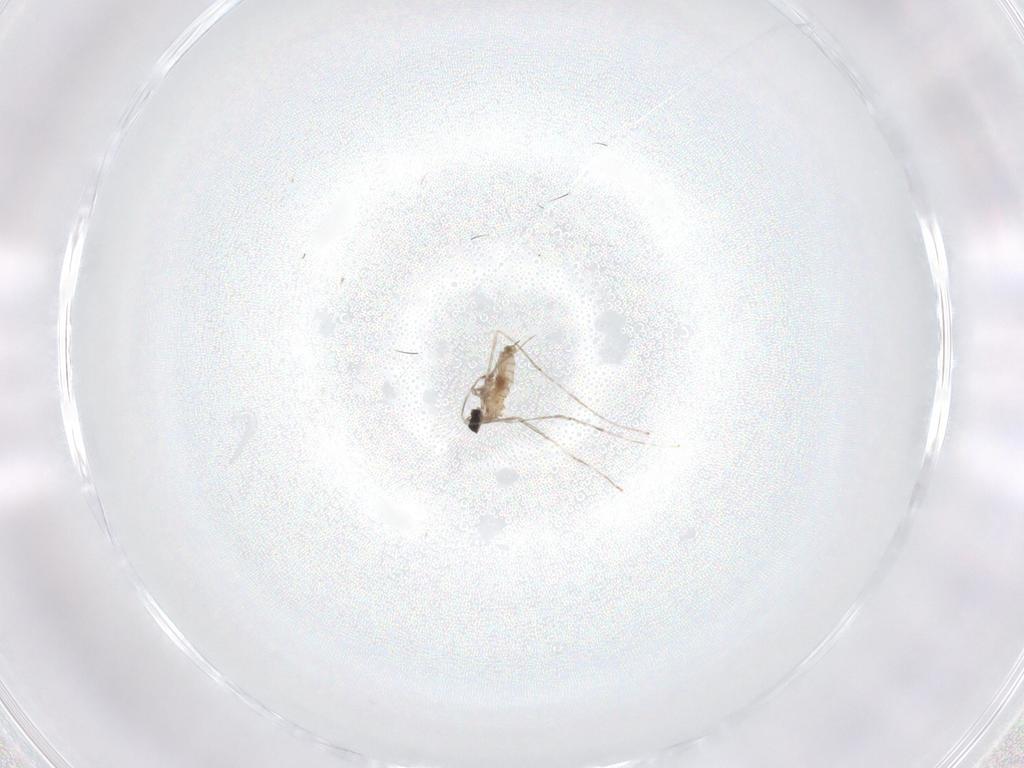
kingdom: Animalia
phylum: Arthropoda
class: Insecta
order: Diptera
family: Cecidomyiidae
